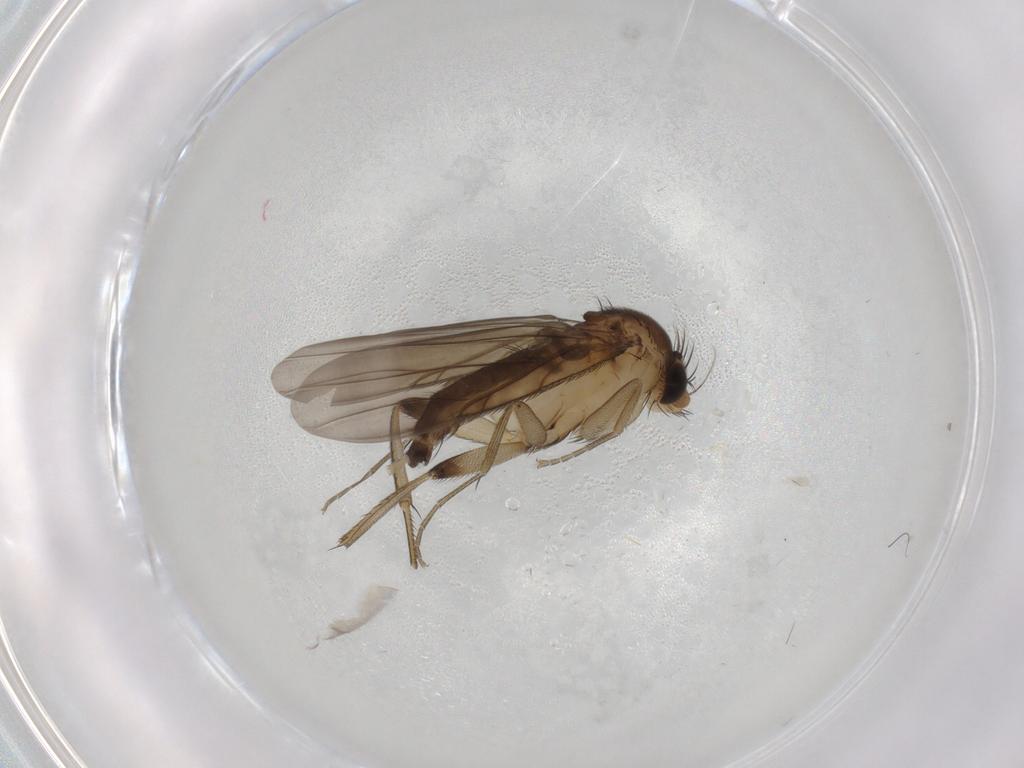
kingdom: Animalia
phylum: Arthropoda
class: Insecta
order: Diptera
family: Phoridae
